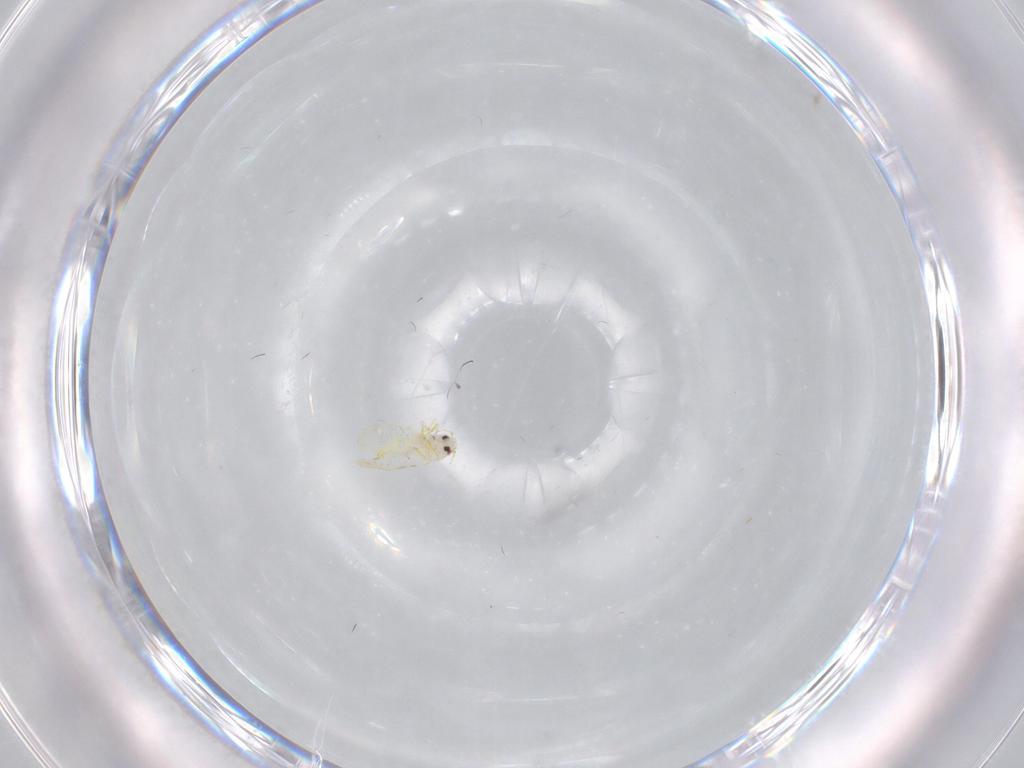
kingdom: Animalia
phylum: Arthropoda
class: Insecta
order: Hemiptera
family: Aleyrodidae
